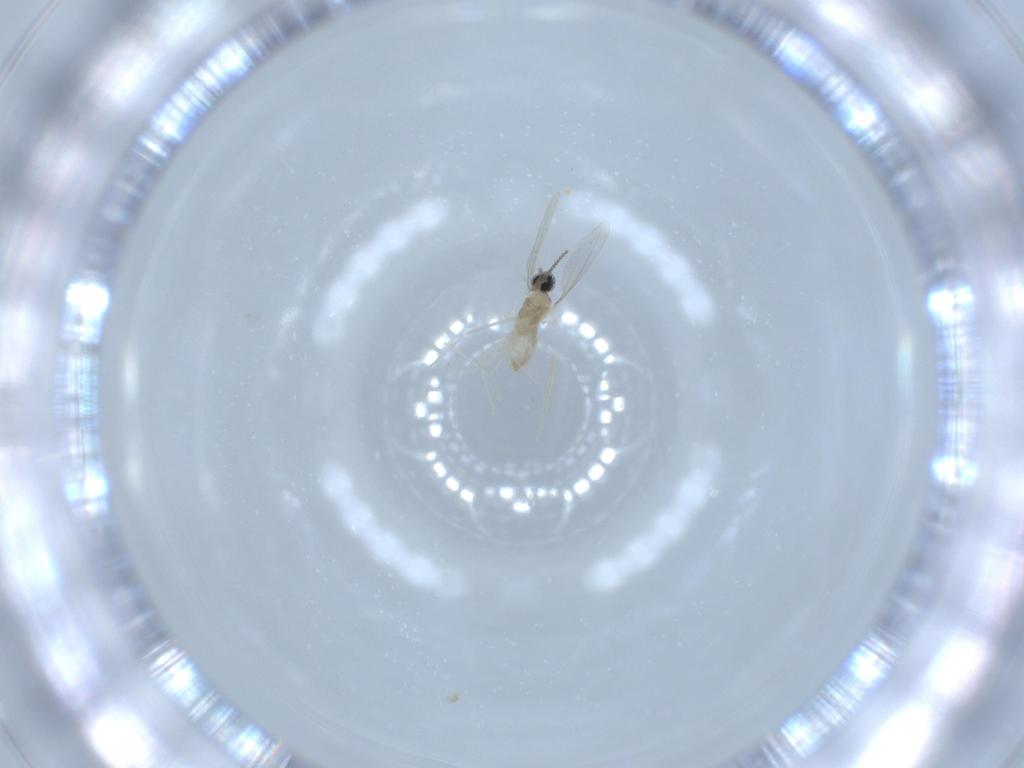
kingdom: Animalia
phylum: Arthropoda
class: Insecta
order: Diptera
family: Cecidomyiidae
